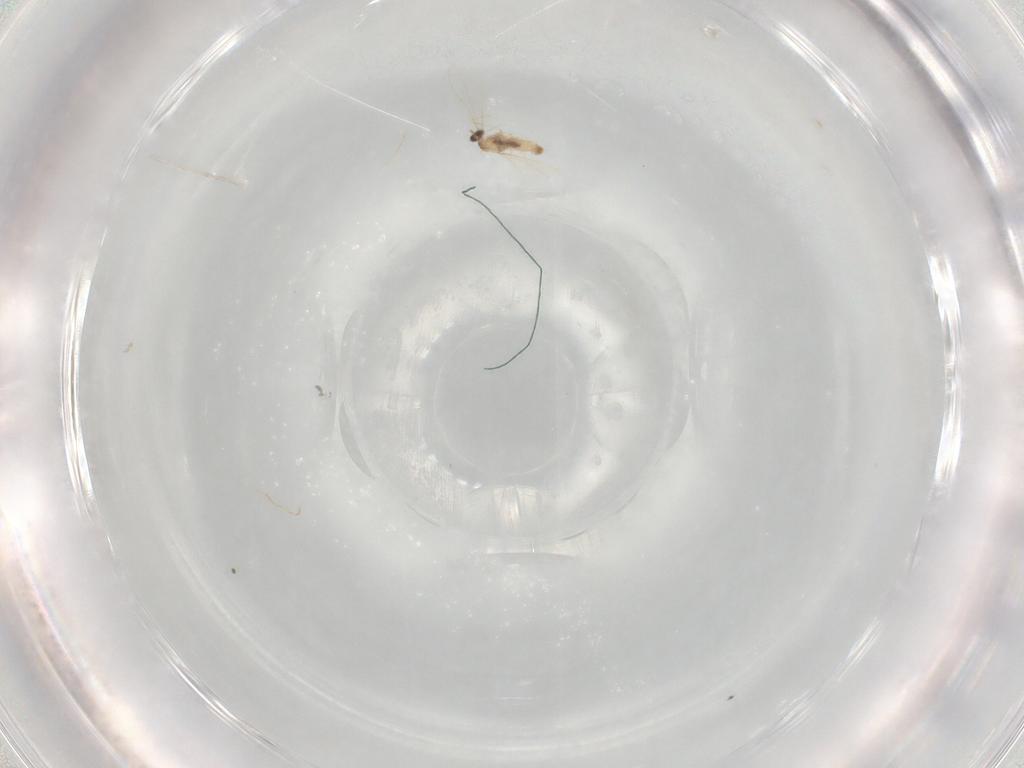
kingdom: Animalia
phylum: Arthropoda
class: Insecta
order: Diptera
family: Cecidomyiidae
